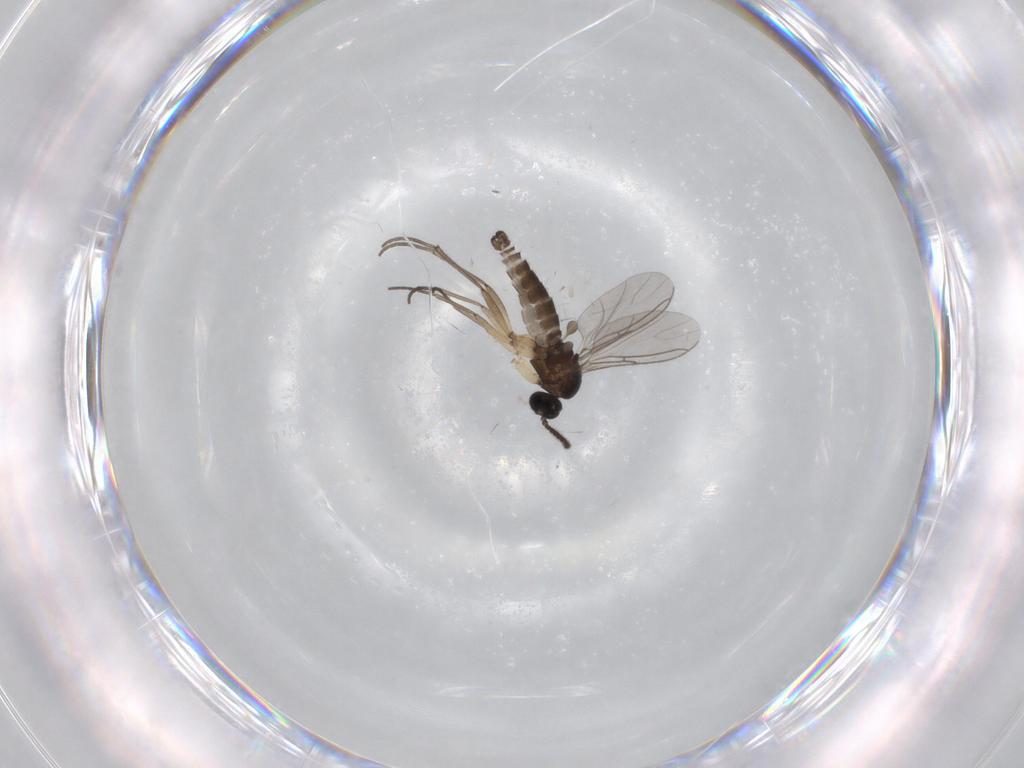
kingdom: Animalia
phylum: Arthropoda
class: Insecta
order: Diptera
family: Sciaridae
